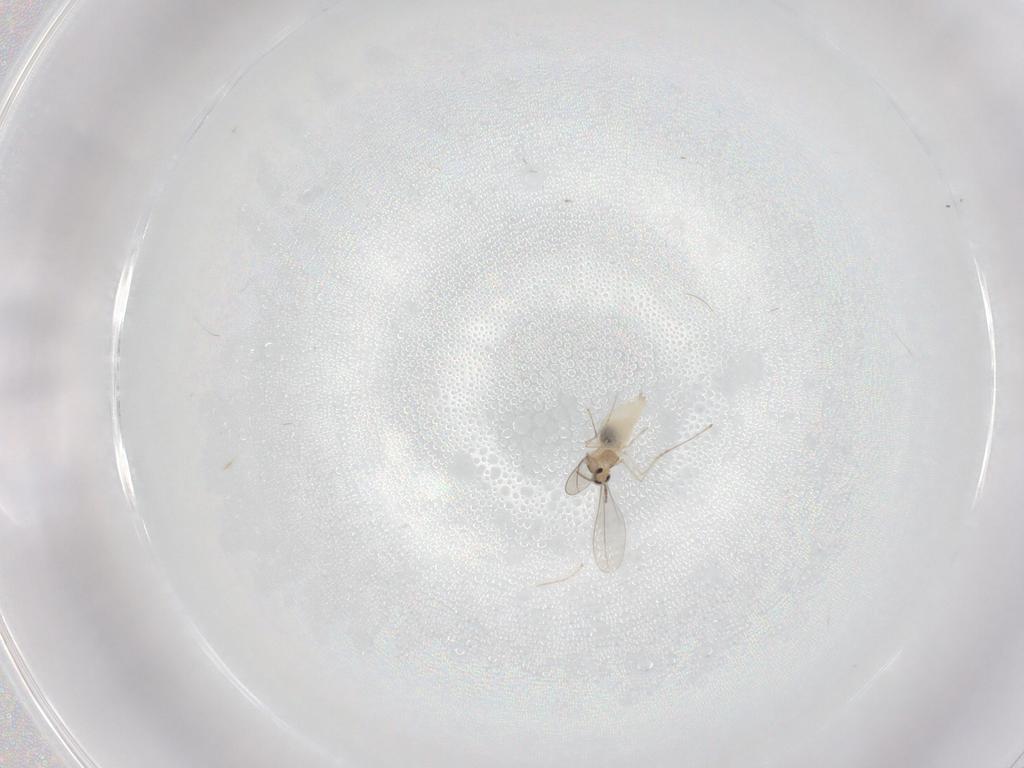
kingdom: Animalia
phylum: Arthropoda
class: Insecta
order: Diptera
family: Cecidomyiidae
